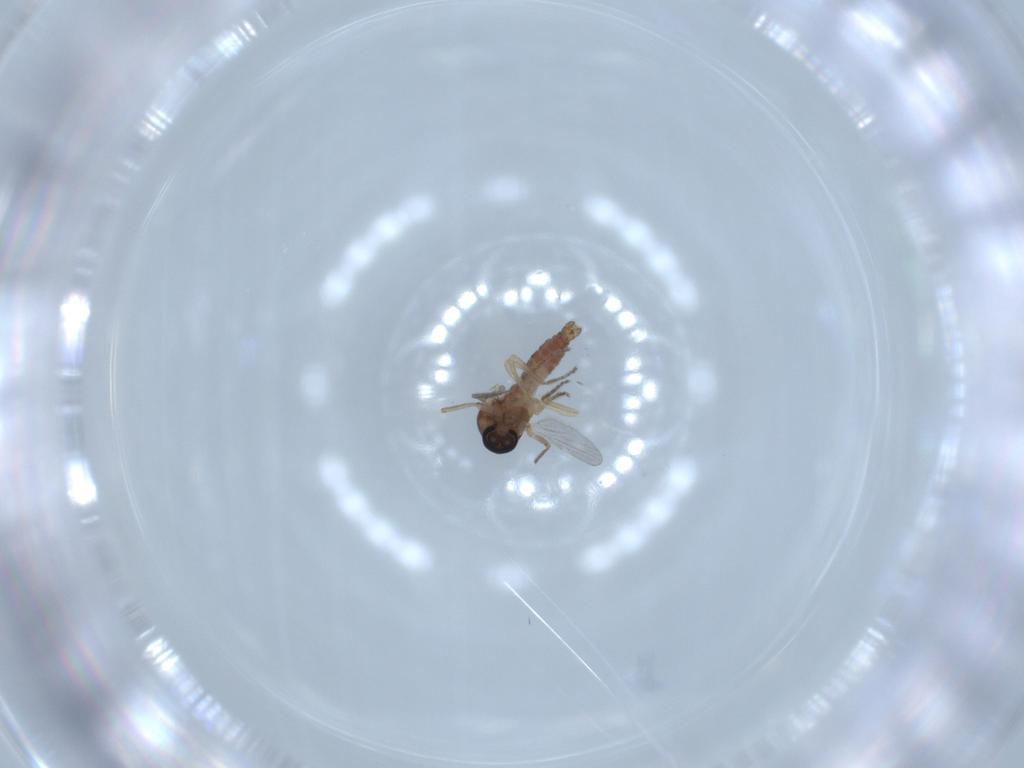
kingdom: Animalia
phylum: Arthropoda
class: Insecta
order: Diptera
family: Ceratopogonidae
